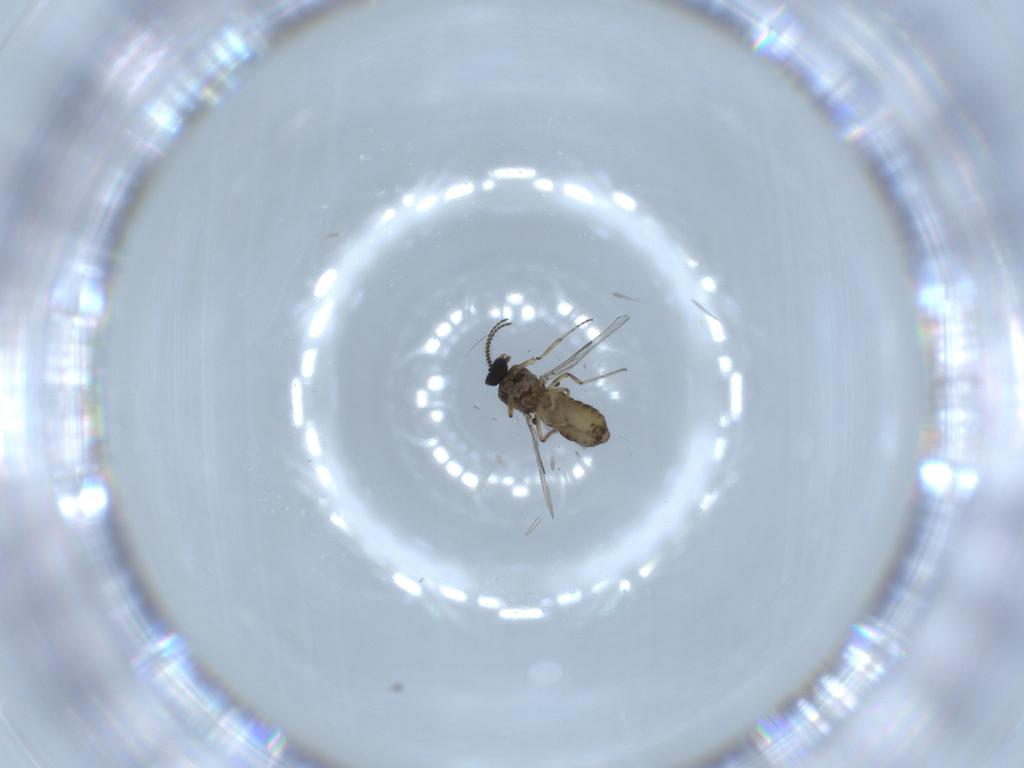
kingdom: Animalia
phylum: Arthropoda
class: Insecta
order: Diptera
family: Ceratopogonidae
